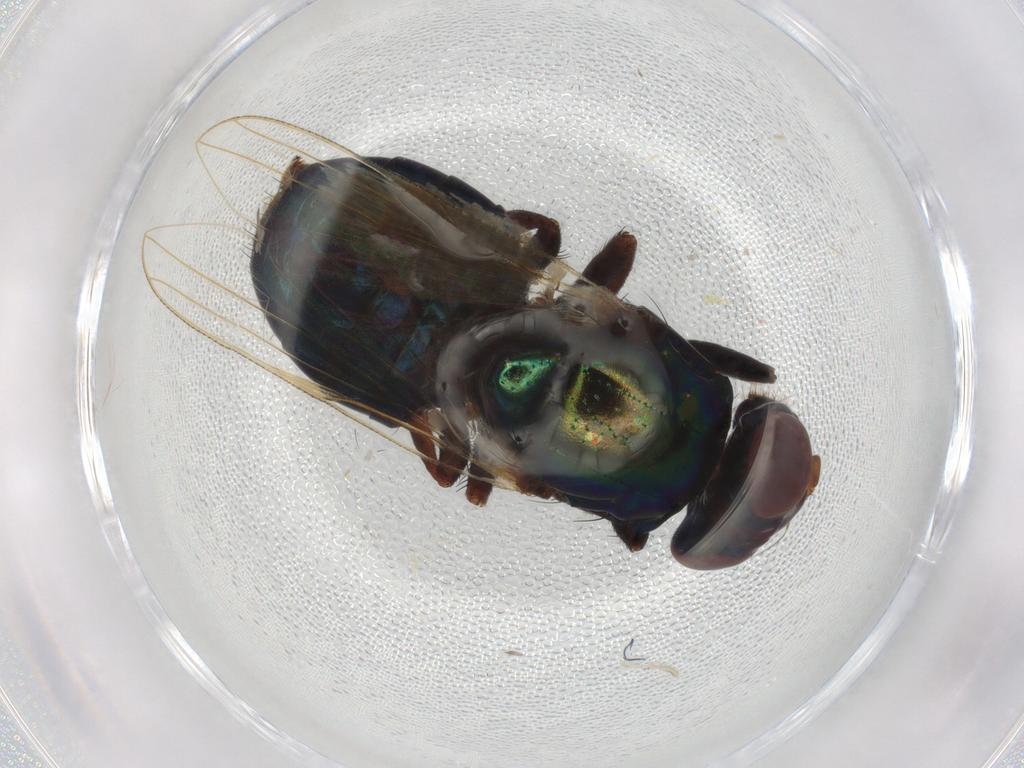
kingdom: Animalia
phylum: Arthropoda
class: Insecta
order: Diptera
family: Ulidiidae
